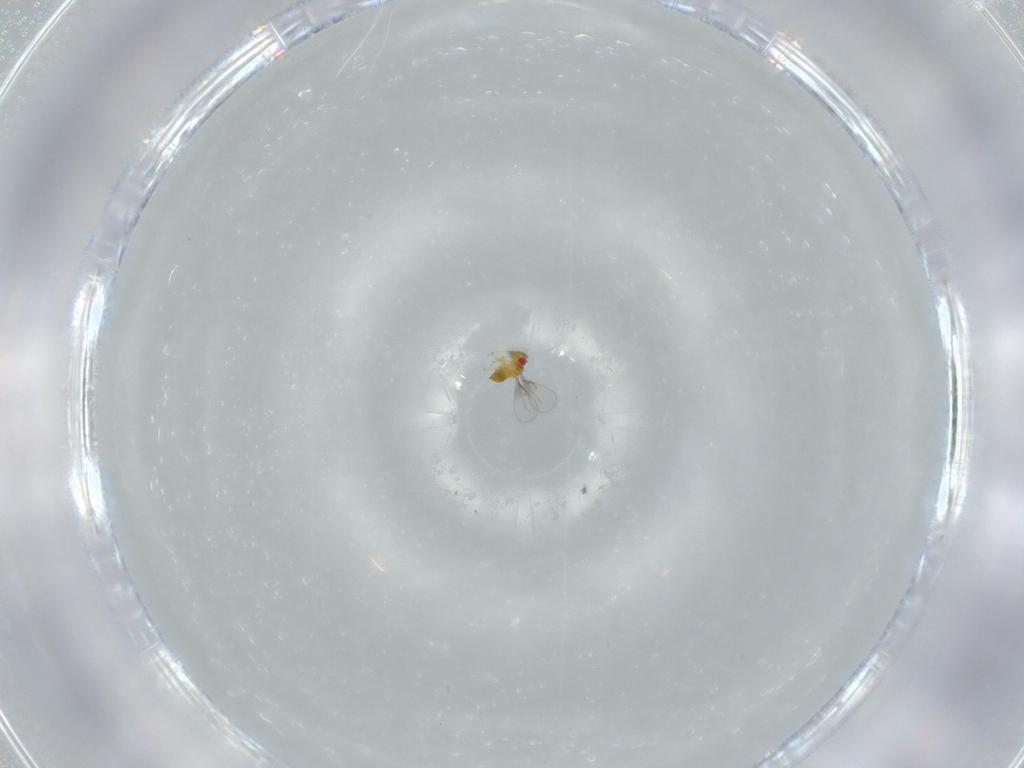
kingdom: Animalia
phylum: Arthropoda
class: Insecta
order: Hymenoptera
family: Trichogrammatidae
